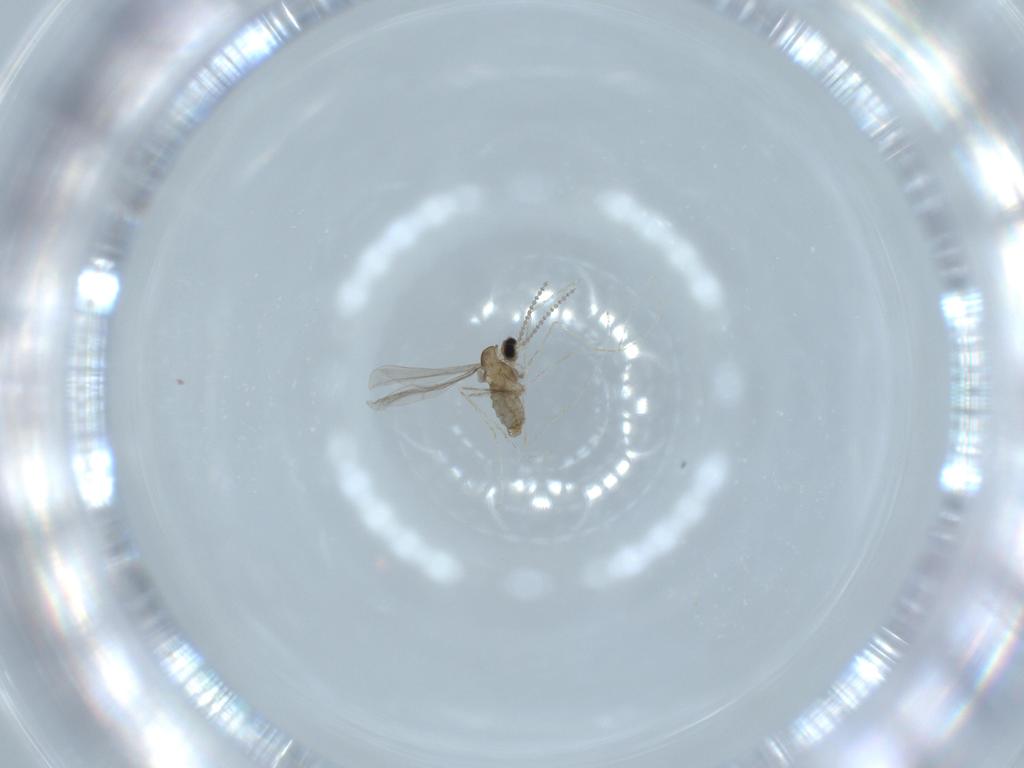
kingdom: Animalia
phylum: Arthropoda
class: Insecta
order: Diptera
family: Cecidomyiidae
